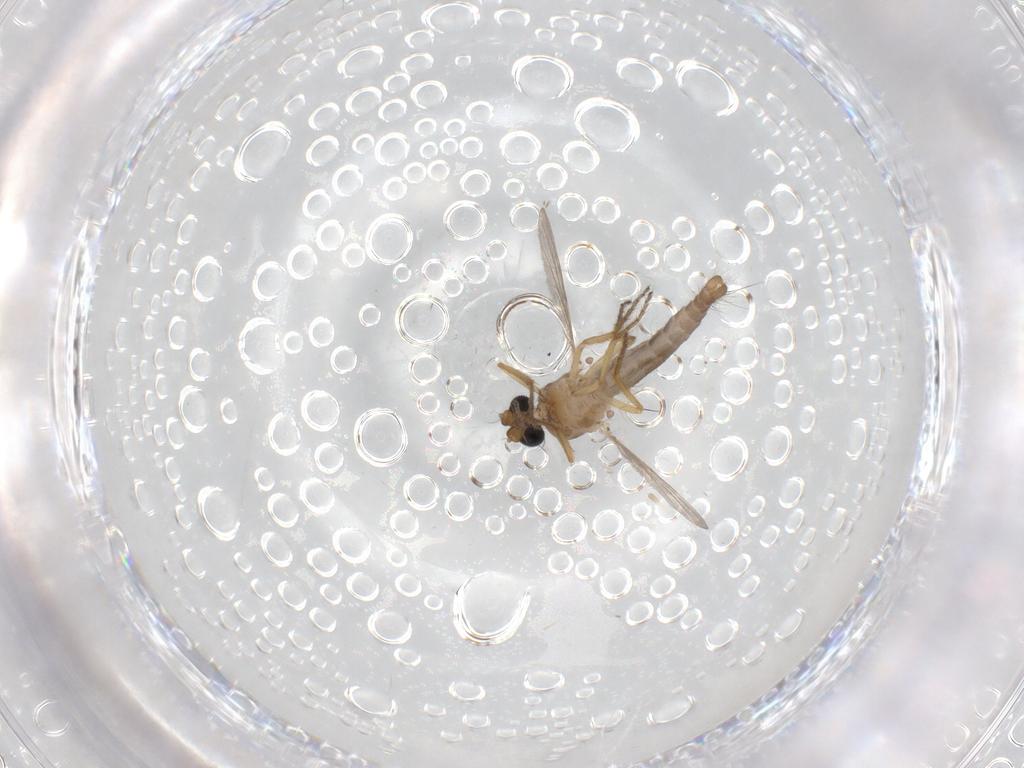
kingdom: Animalia
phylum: Arthropoda
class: Insecta
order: Diptera
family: Psychodidae
